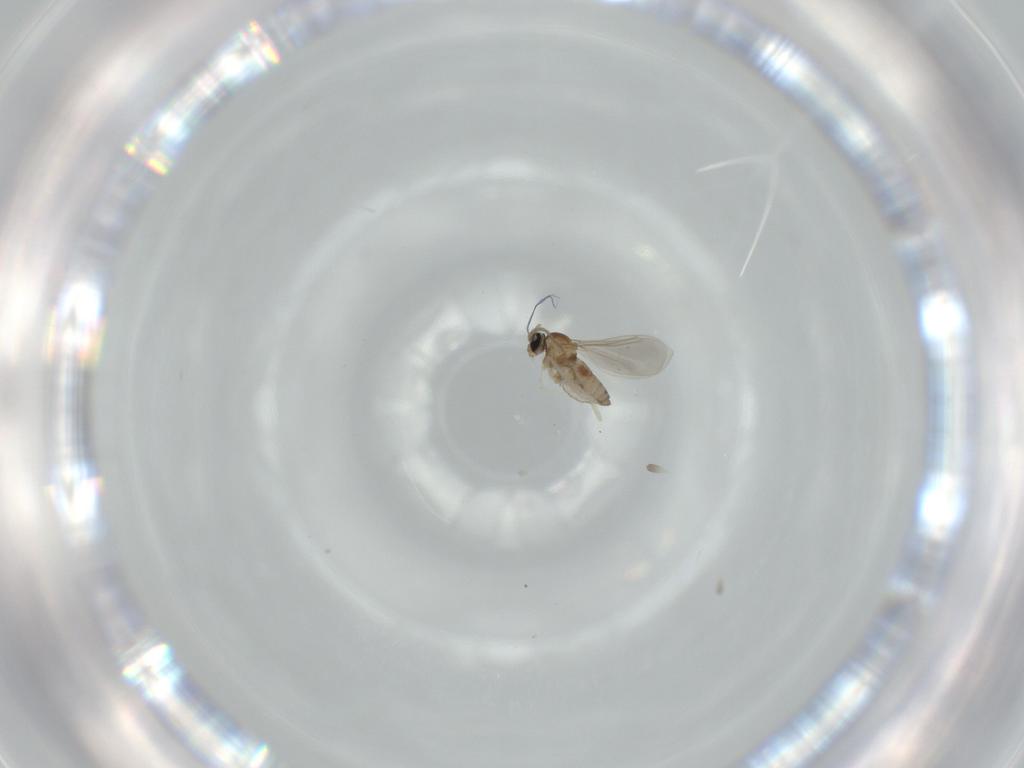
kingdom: Animalia
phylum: Arthropoda
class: Insecta
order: Diptera
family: Cecidomyiidae
